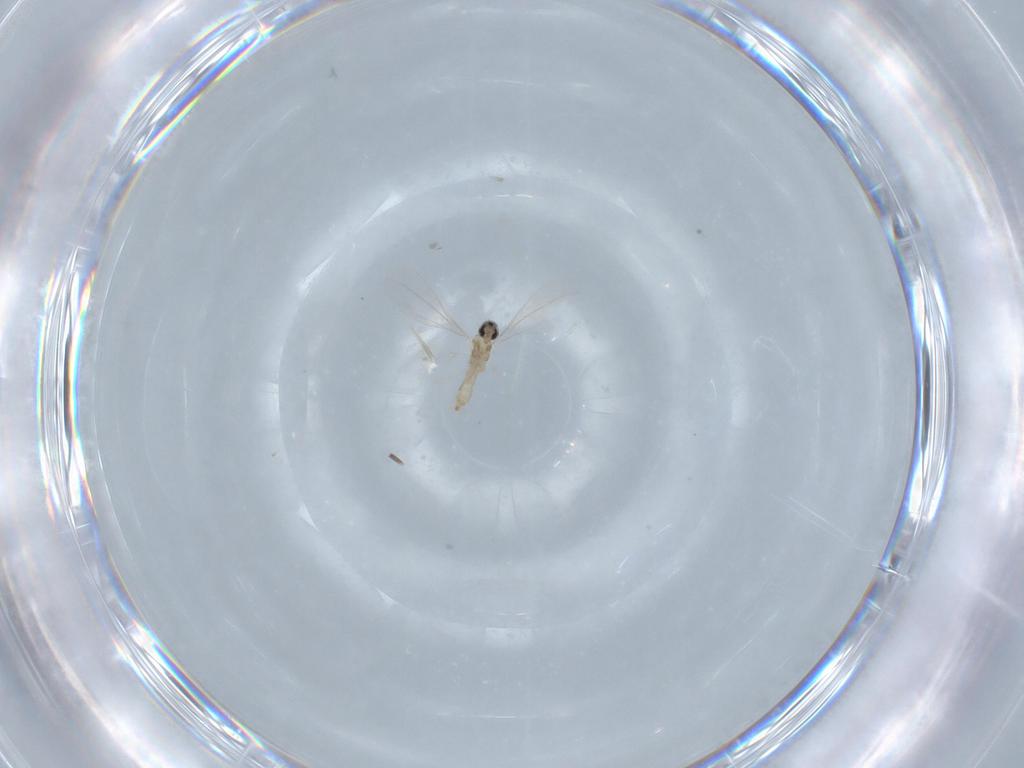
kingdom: Animalia
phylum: Arthropoda
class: Insecta
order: Diptera
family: Cecidomyiidae
